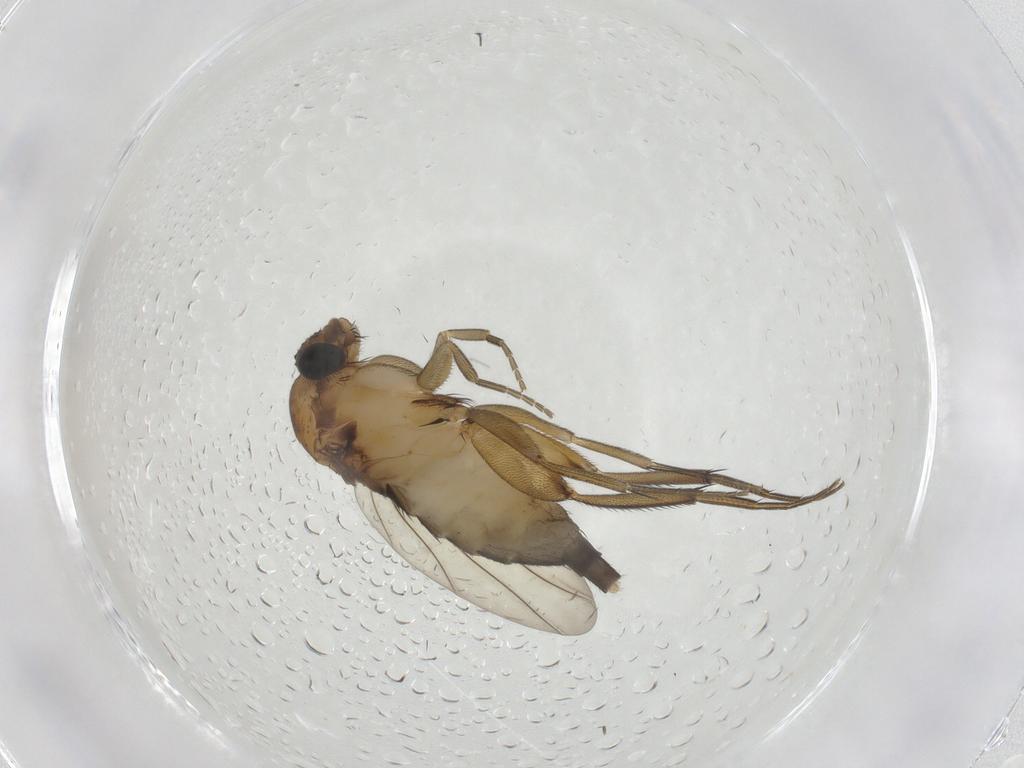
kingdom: Animalia
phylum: Arthropoda
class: Insecta
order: Diptera
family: Phoridae
